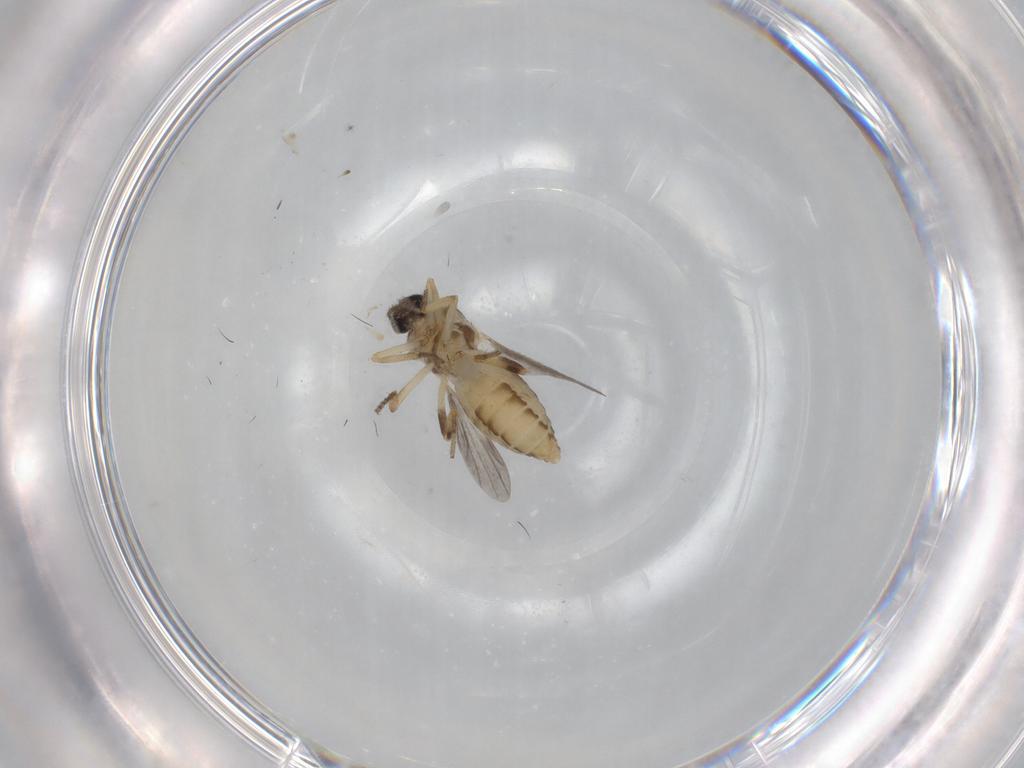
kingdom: Animalia
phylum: Arthropoda
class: Insecta
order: Diptera
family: Ceratopogonidae
